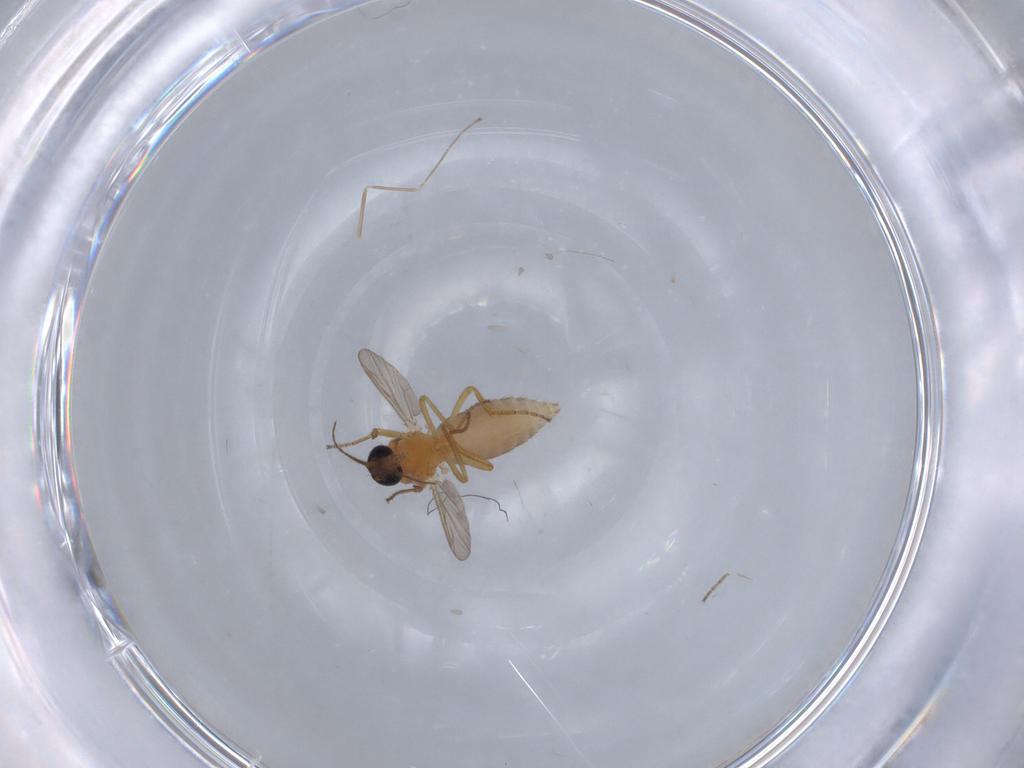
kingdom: Animalia
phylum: Arthropoda
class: Insecta
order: Diptera
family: Ceratopogonidae
